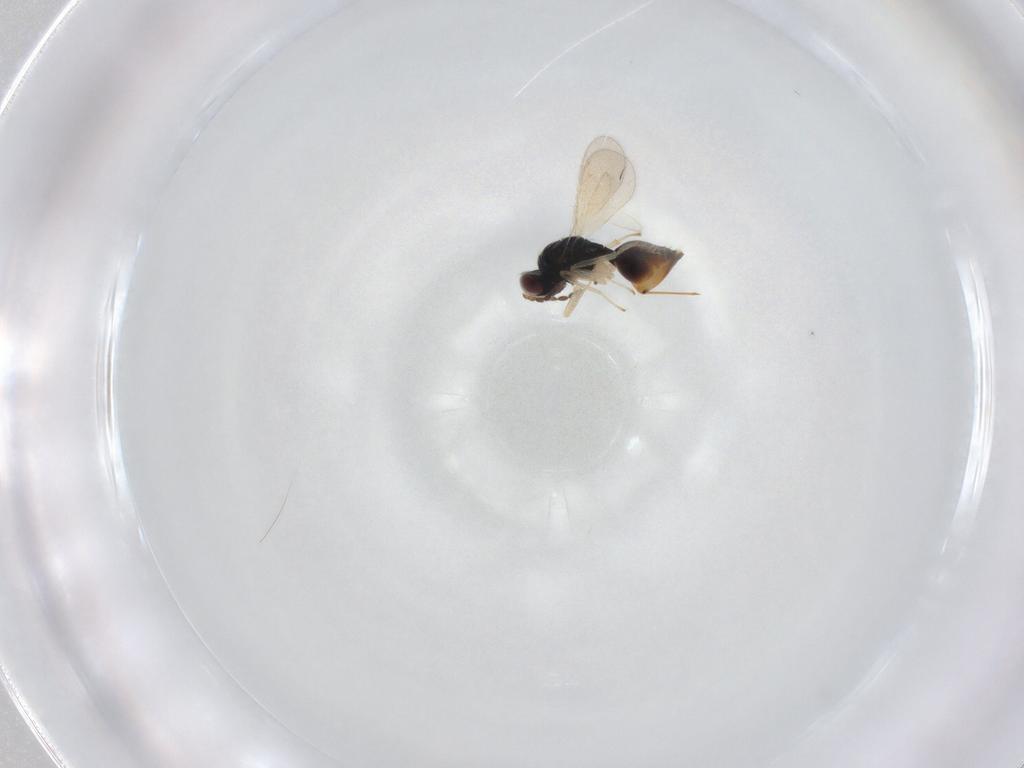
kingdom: Animalia
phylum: Arthropoda
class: Insecta
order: Hymenoptera
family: Eulophidae
